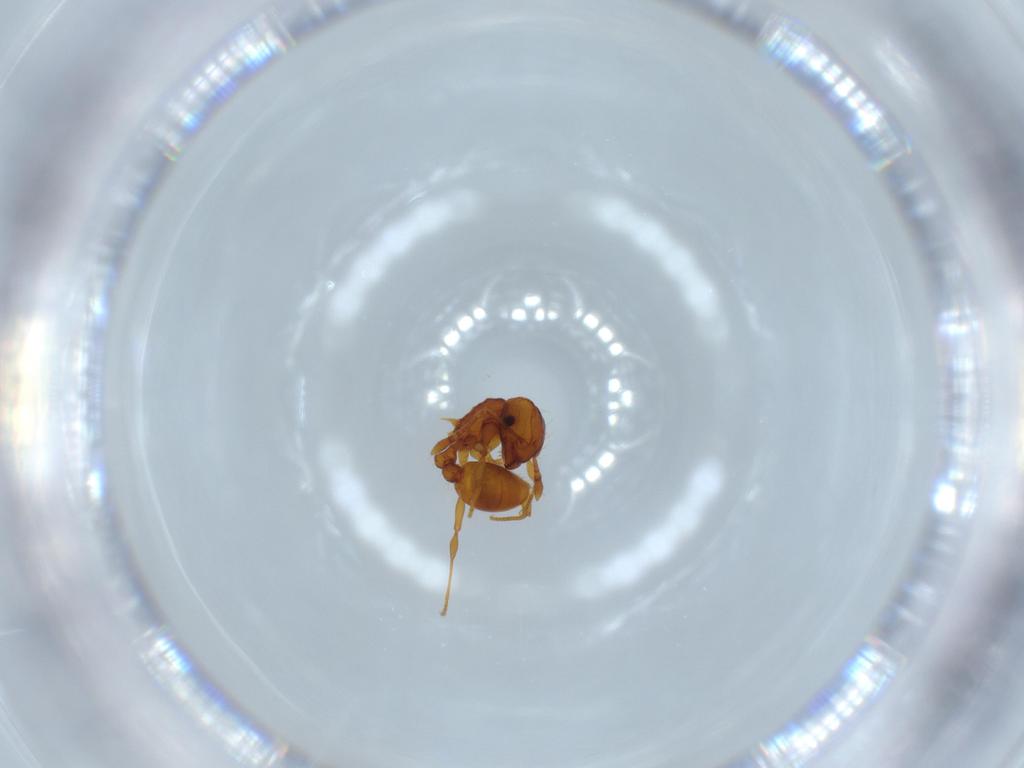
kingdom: Animalia
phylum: Arthropoda
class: Insecta
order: Hymenoptera
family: Formicidae
